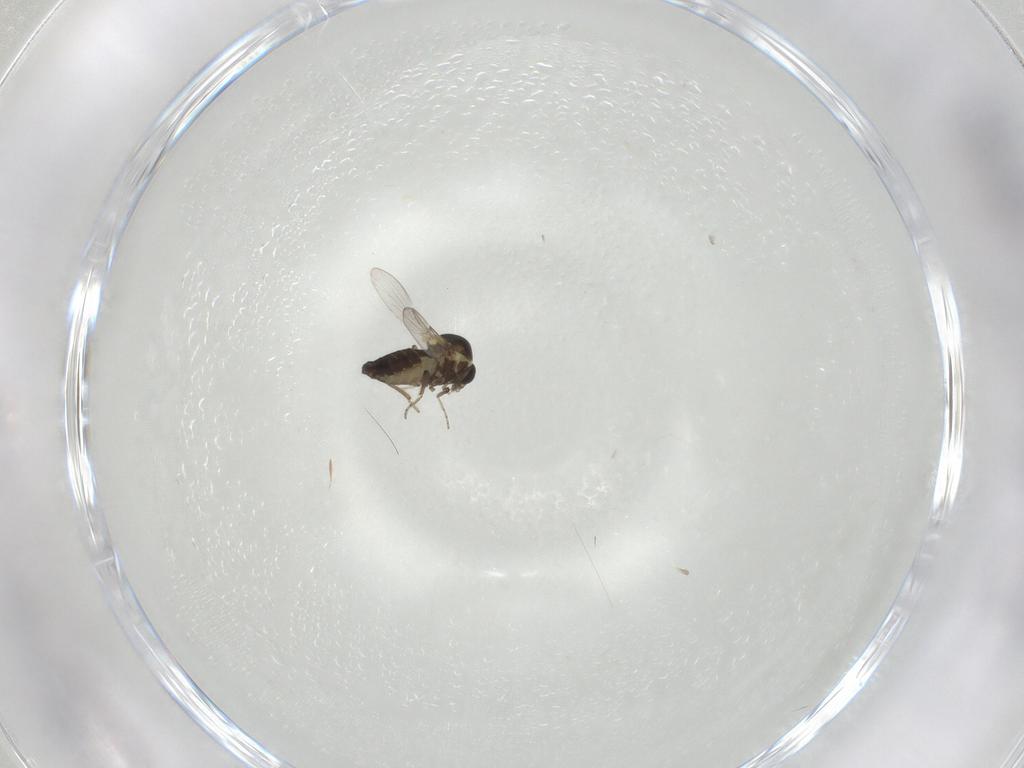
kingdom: Animalia
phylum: Arthropoda
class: Insecta
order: Diptera
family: Ceratopogonidae
